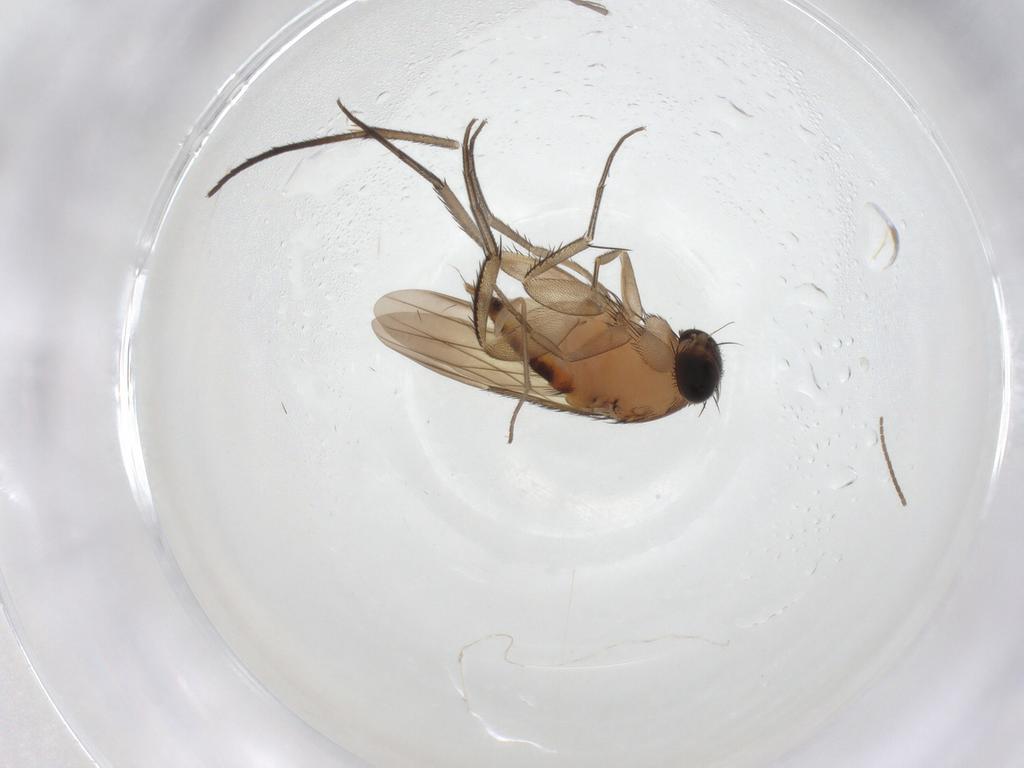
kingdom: Animalia
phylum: Arthropoda
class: Insecta
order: Diptera
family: Sciaridae
